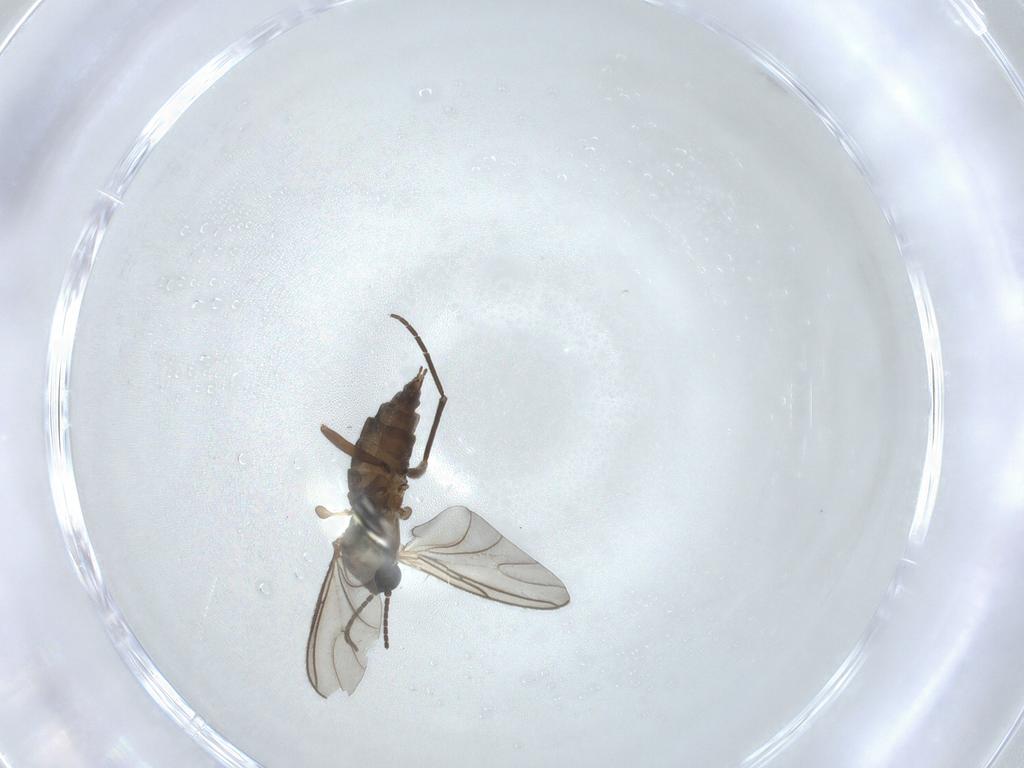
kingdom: Animalia
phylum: Arthropoda
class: Insecta
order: Diptera
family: Sciaridae
